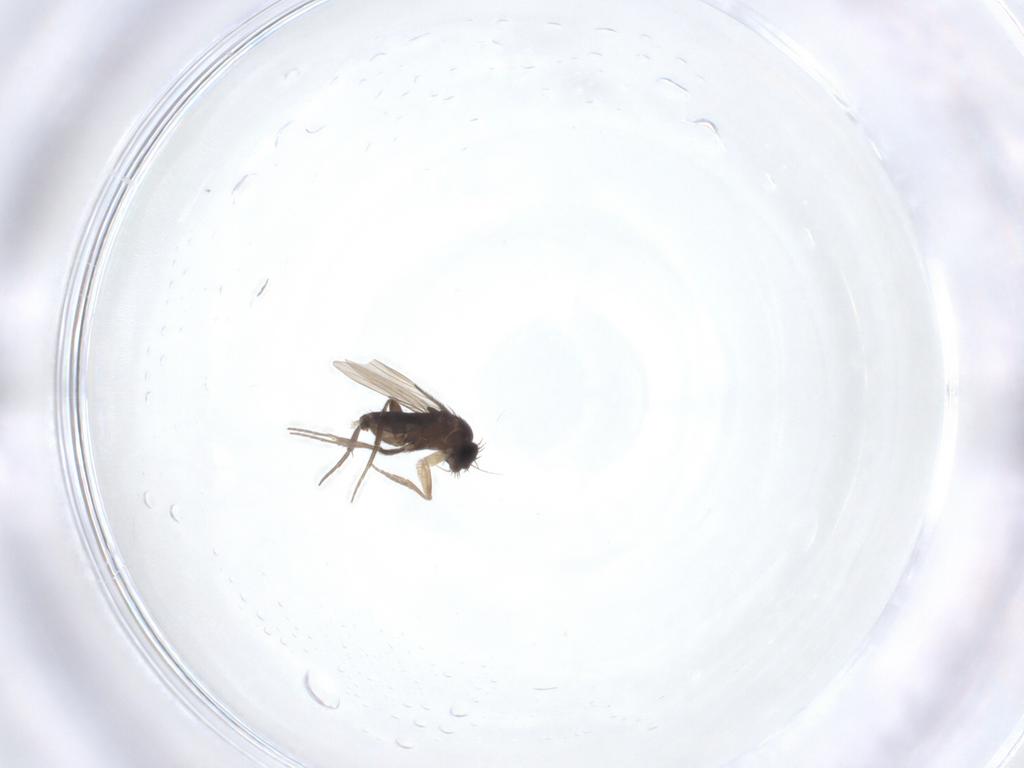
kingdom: Animalia
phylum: Arthropoda
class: Insecta
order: Diptera
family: Phoridae
